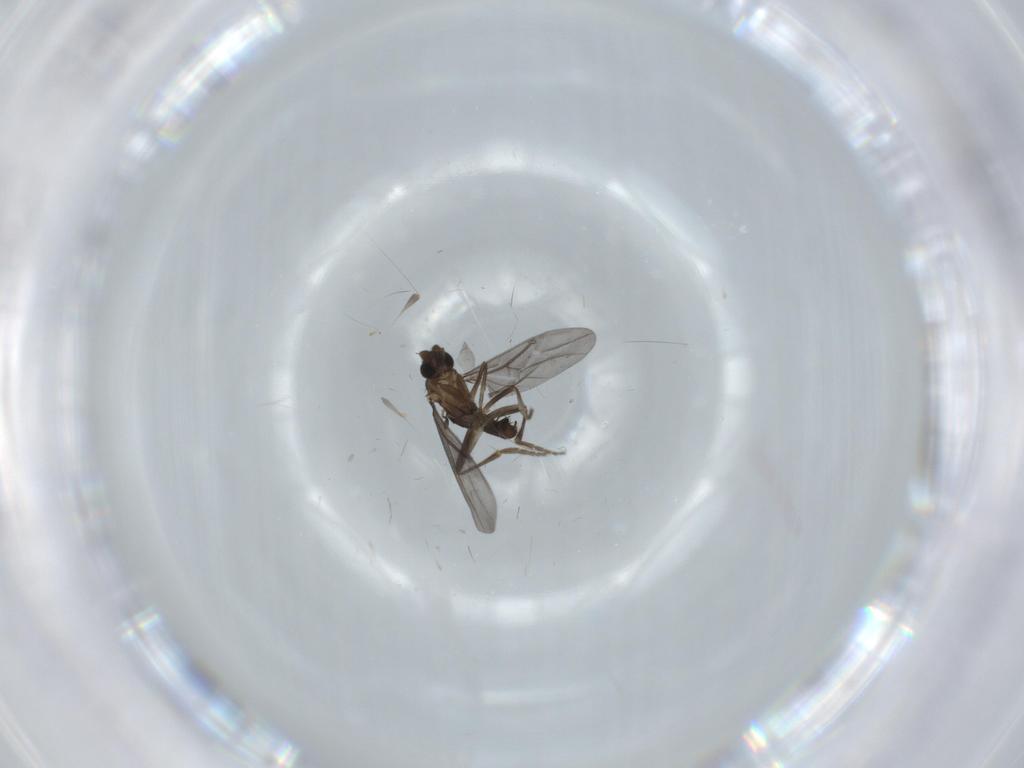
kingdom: Animalia
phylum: Arthropoda
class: Insecta
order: Diptera
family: Phoridae
